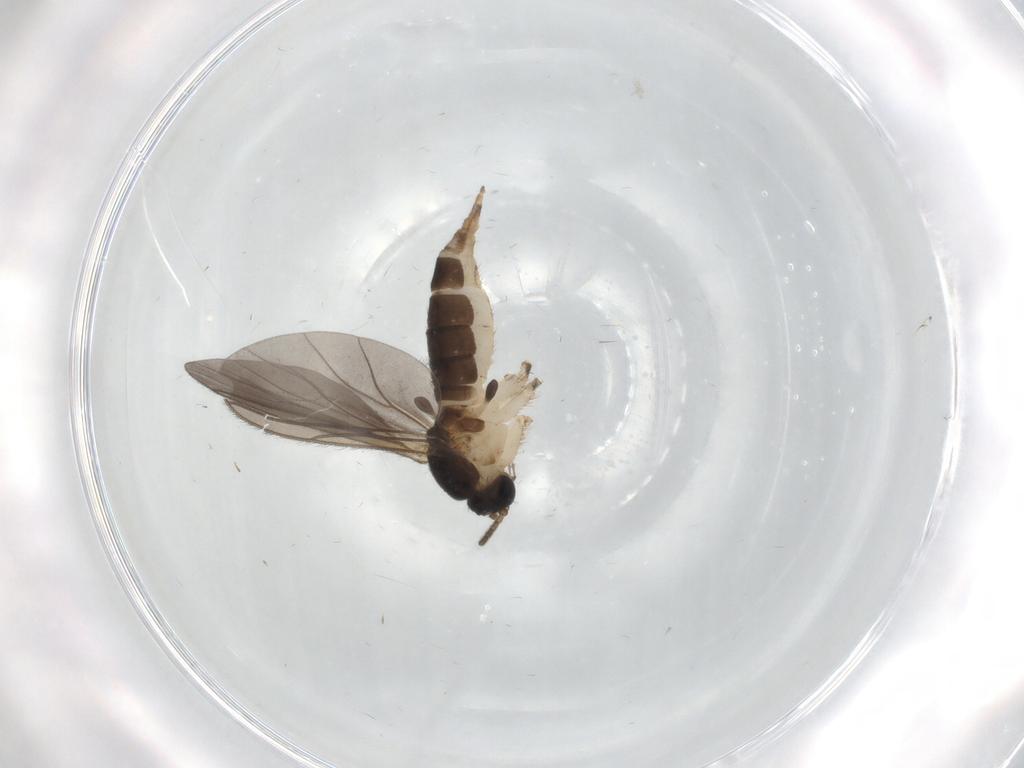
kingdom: Animalia
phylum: Arthropoda
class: Insecta
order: Diptera
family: Sciaridae
